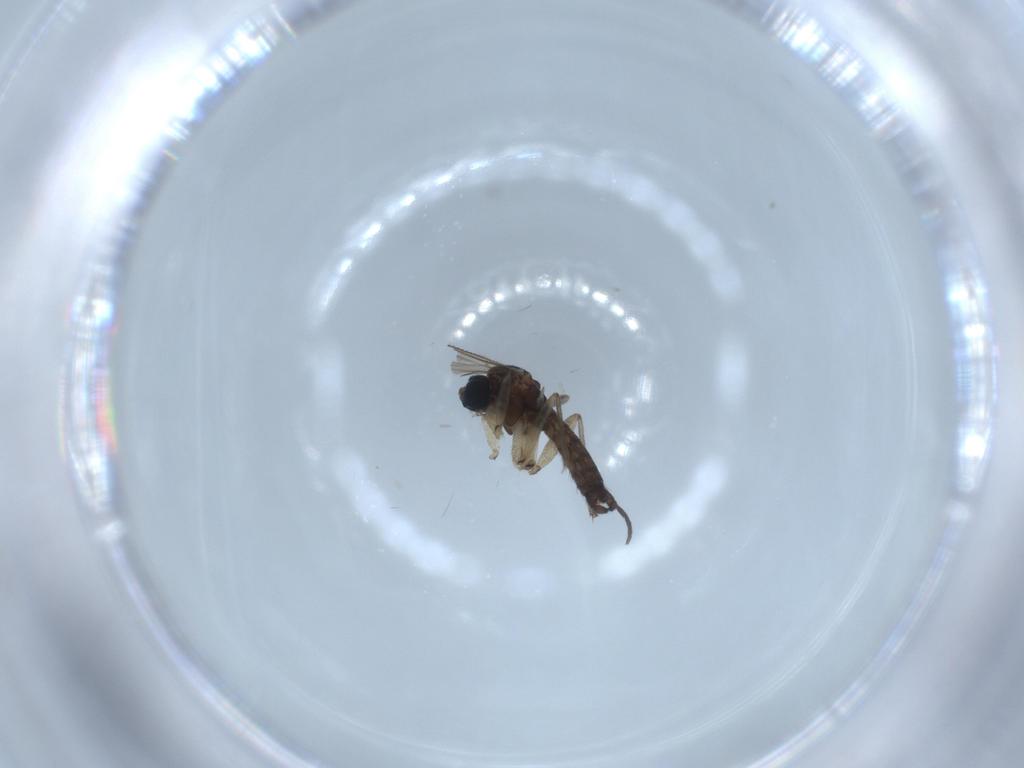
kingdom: Animalia
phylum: Arthropoda
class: Insecta
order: Diptera
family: Sciaridae
